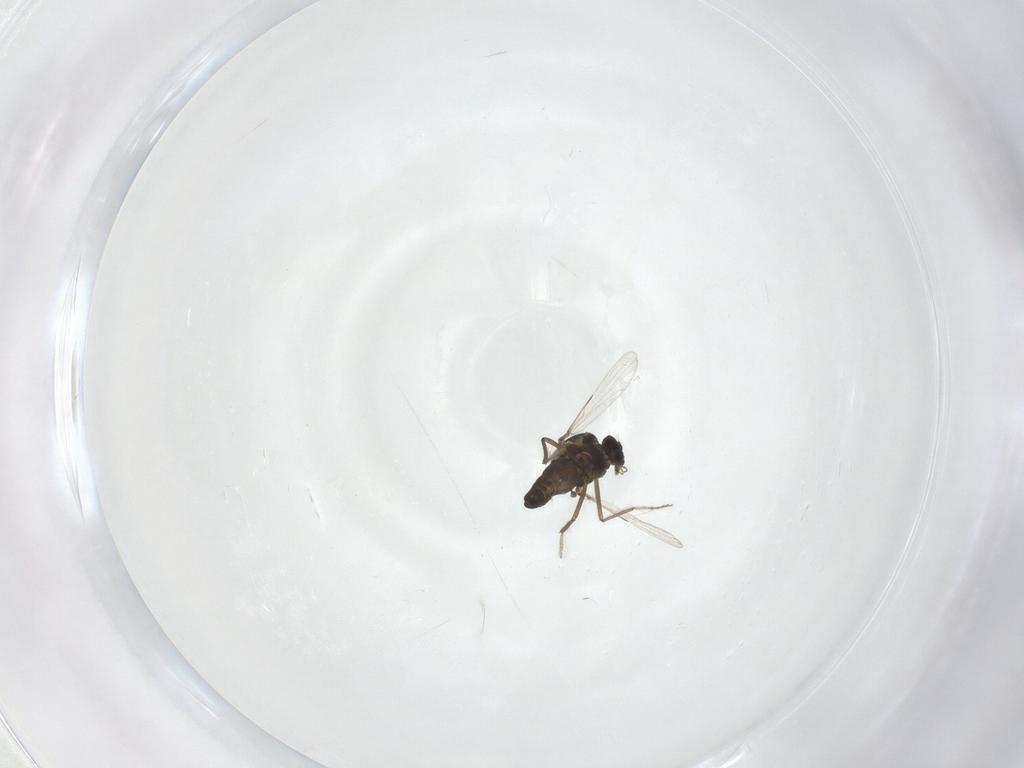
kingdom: Animalia
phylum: Arthropoda
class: Insecta
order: Diptera
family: Ceratopogonidae
